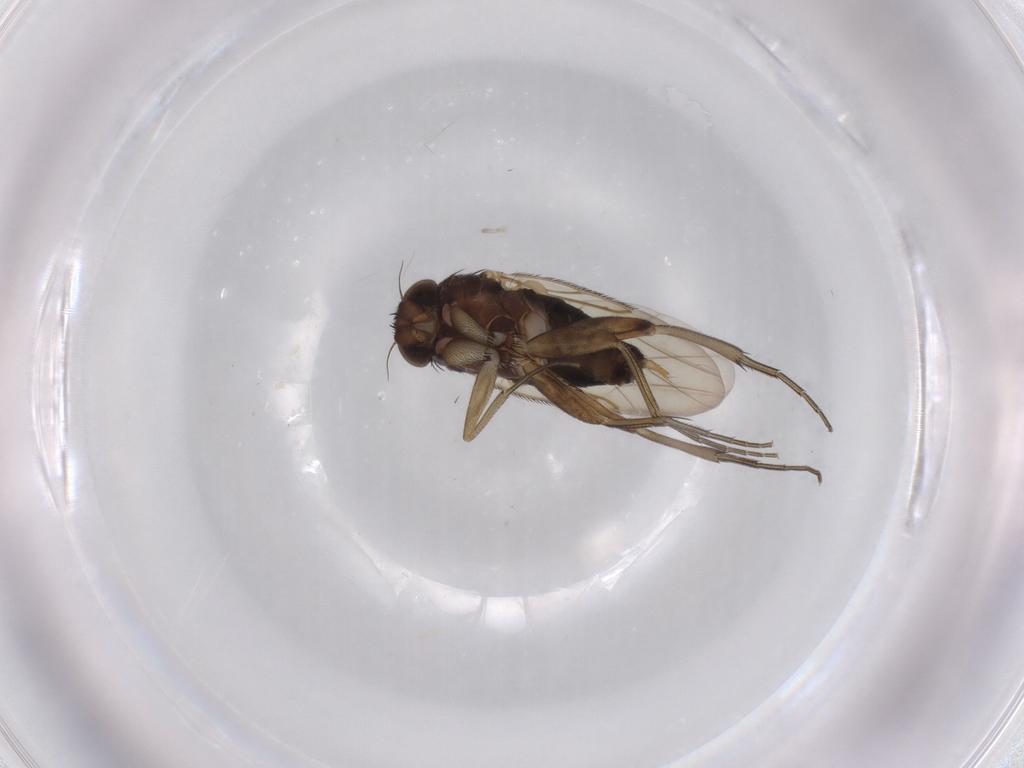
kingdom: Animalia
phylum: Arthropoda
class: Insecta
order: Diptera
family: Phoridae
